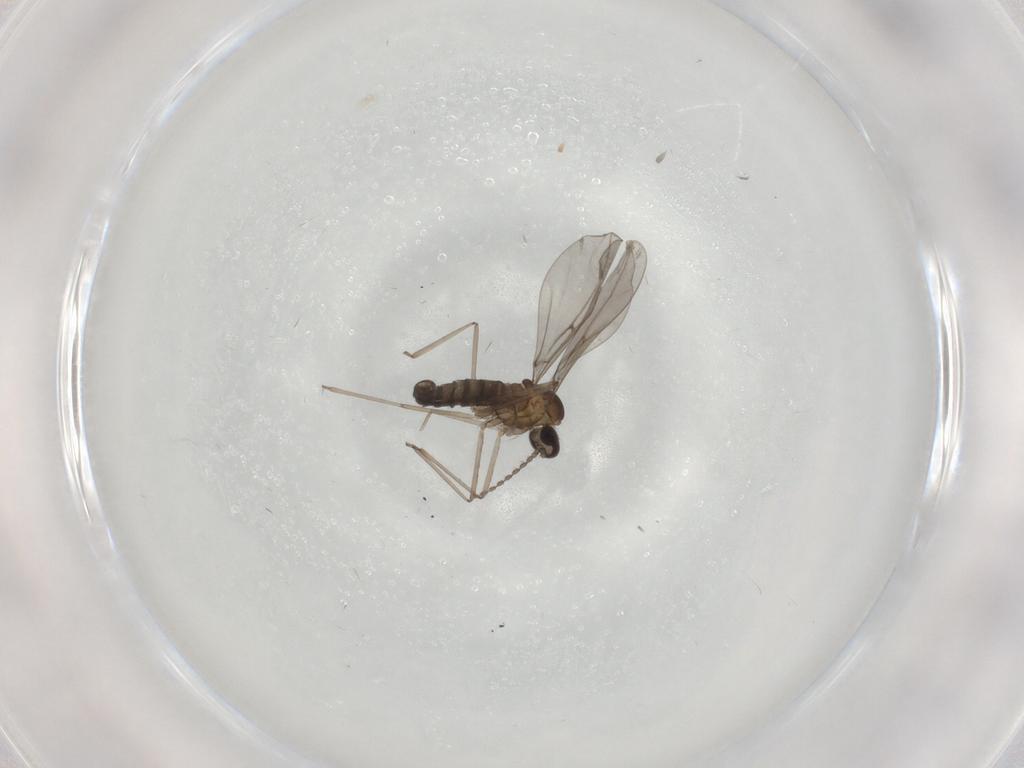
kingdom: Animalia
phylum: Arthropoda
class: Insecta
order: Diptera
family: Cecidomyiidae
